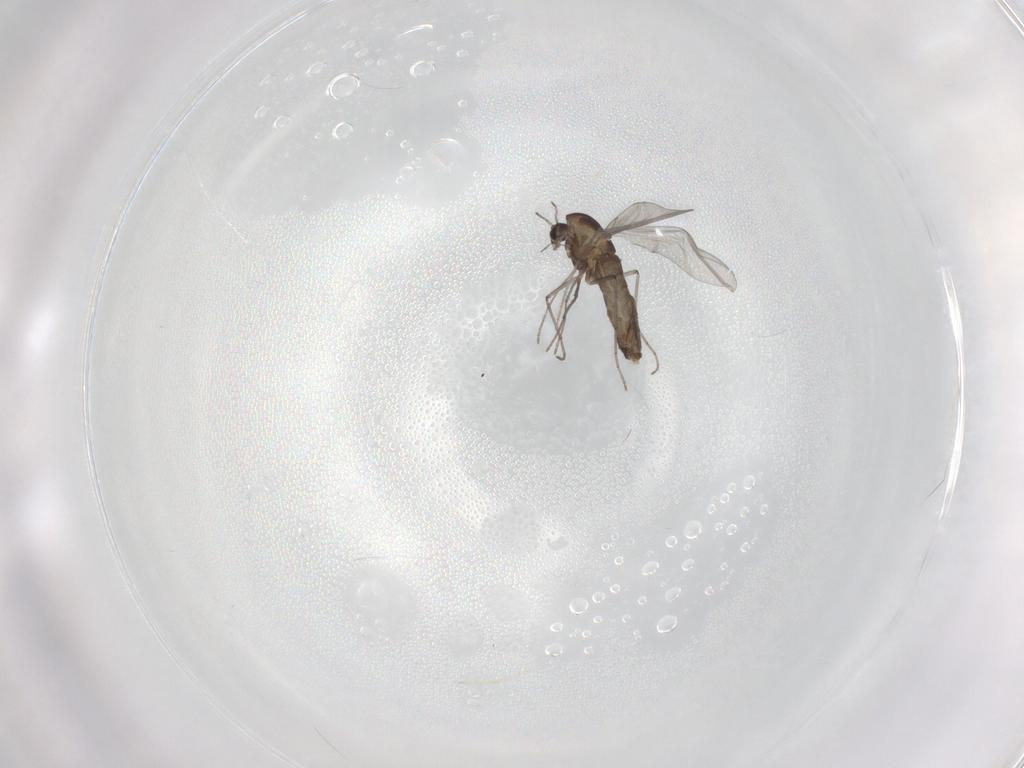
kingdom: Animalia
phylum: Arthropoda
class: Insecta
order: Diptera
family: Chironomidae
